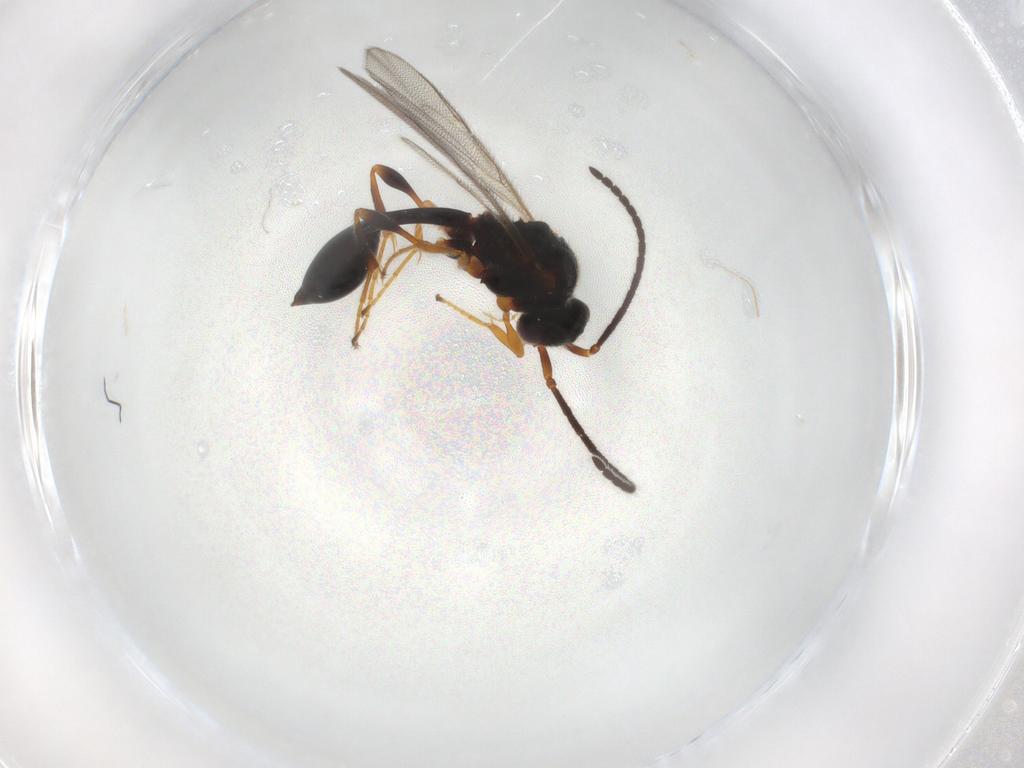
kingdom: Animalia
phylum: Arthropoda
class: Insecta
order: Hymenoptera
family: Diapriidae
